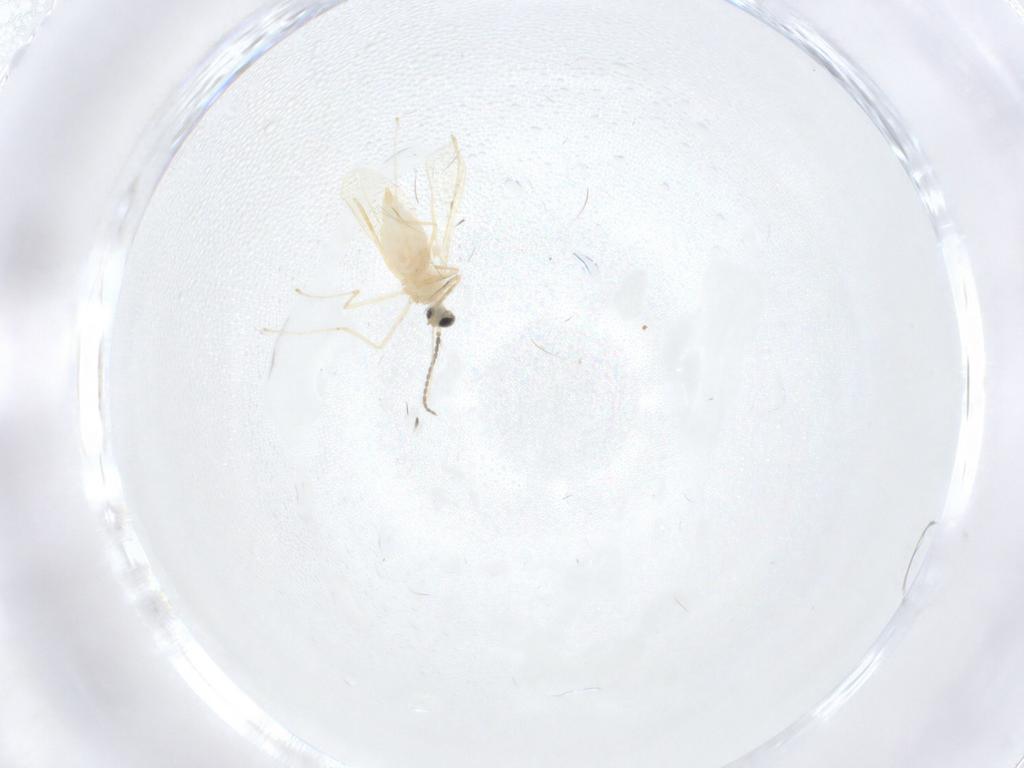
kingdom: Animalia
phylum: Arthropoda
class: Insecta
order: Diptera
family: Cecidomyiidae
